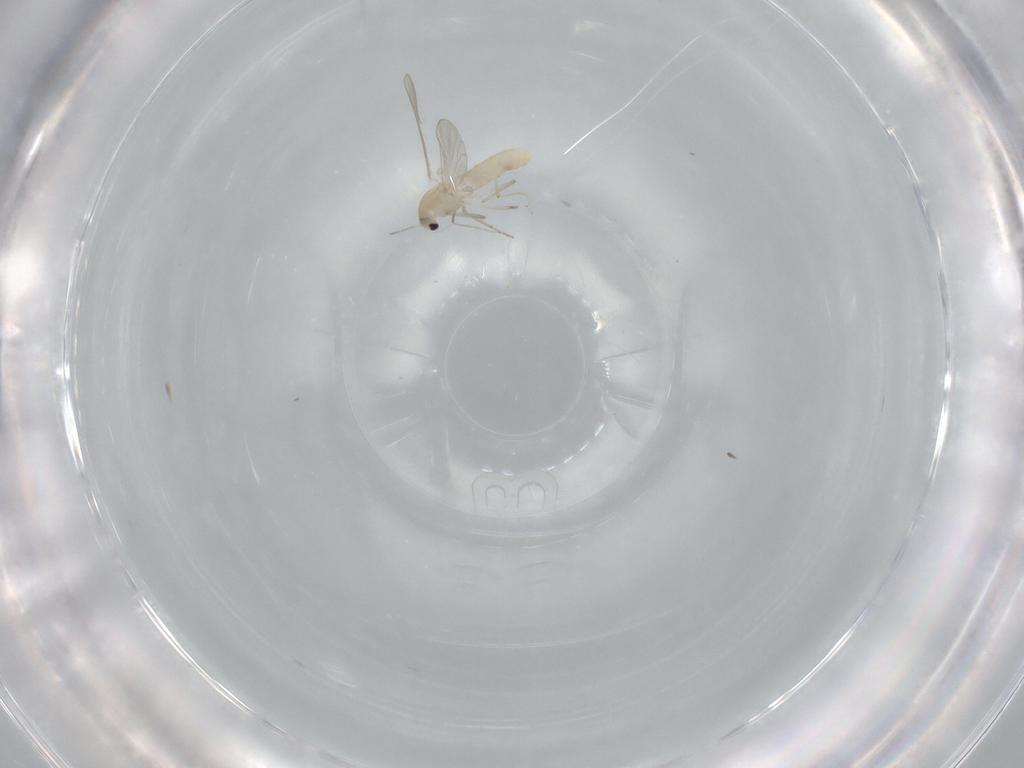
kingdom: Animalia
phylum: Arthropoda
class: Insecta
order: Diptera
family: Chironomidae
